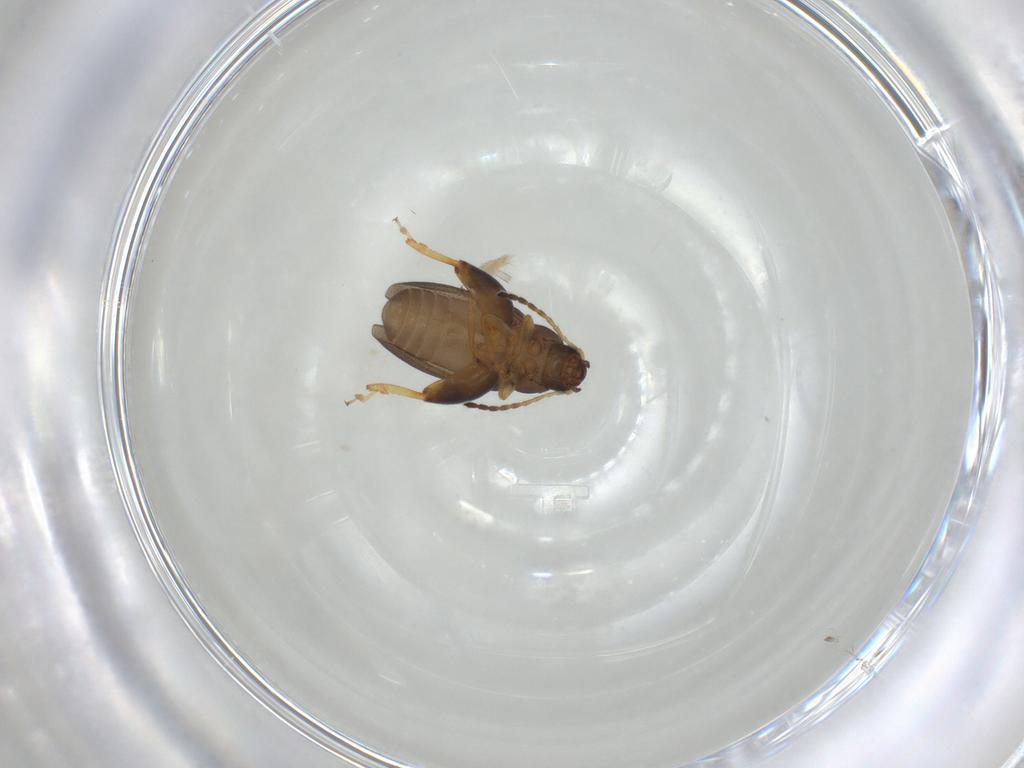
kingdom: Animalia
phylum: Arthropoda
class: Insecta
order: Coleoptera
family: Chrysomelidae
